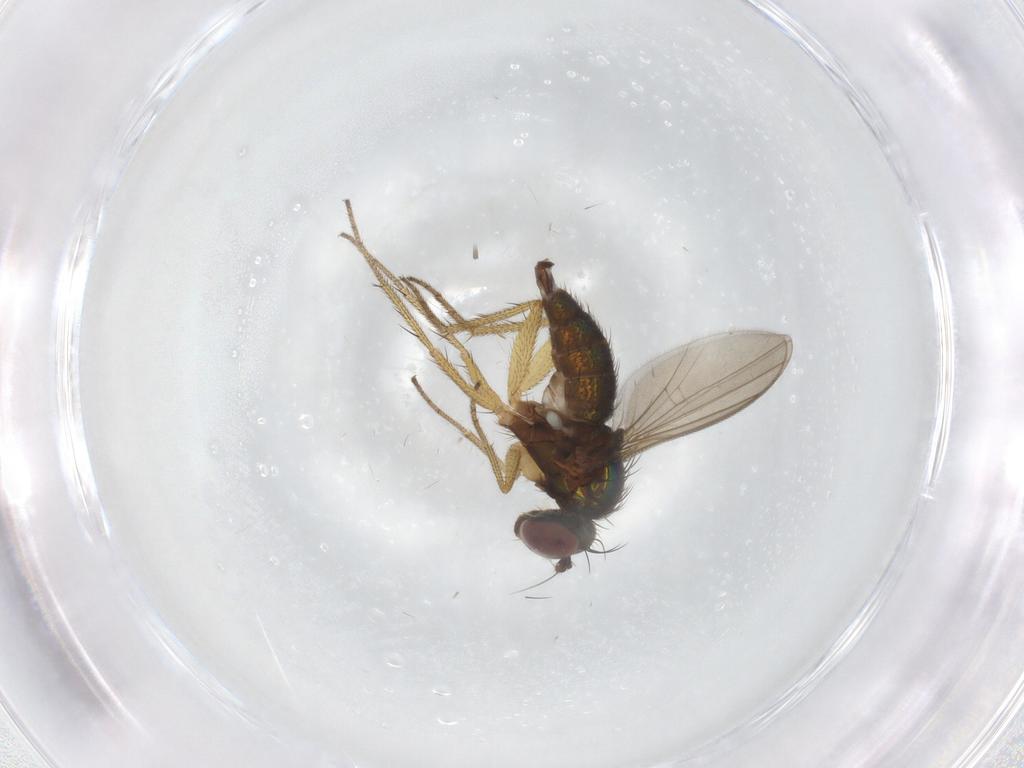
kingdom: Animalia
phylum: Arthropoda
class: Insecta
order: Diptera
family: Dolichopodidae
